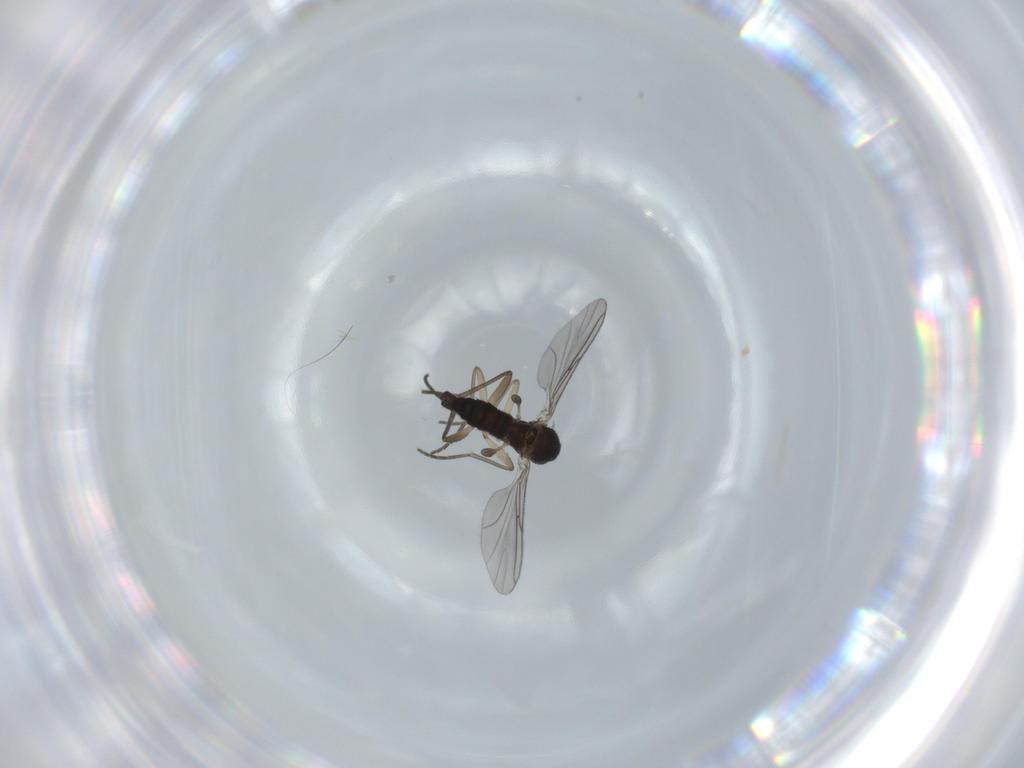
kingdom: Animalia
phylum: Arthropoda
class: Insecta
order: Diptera
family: Sciaridae
